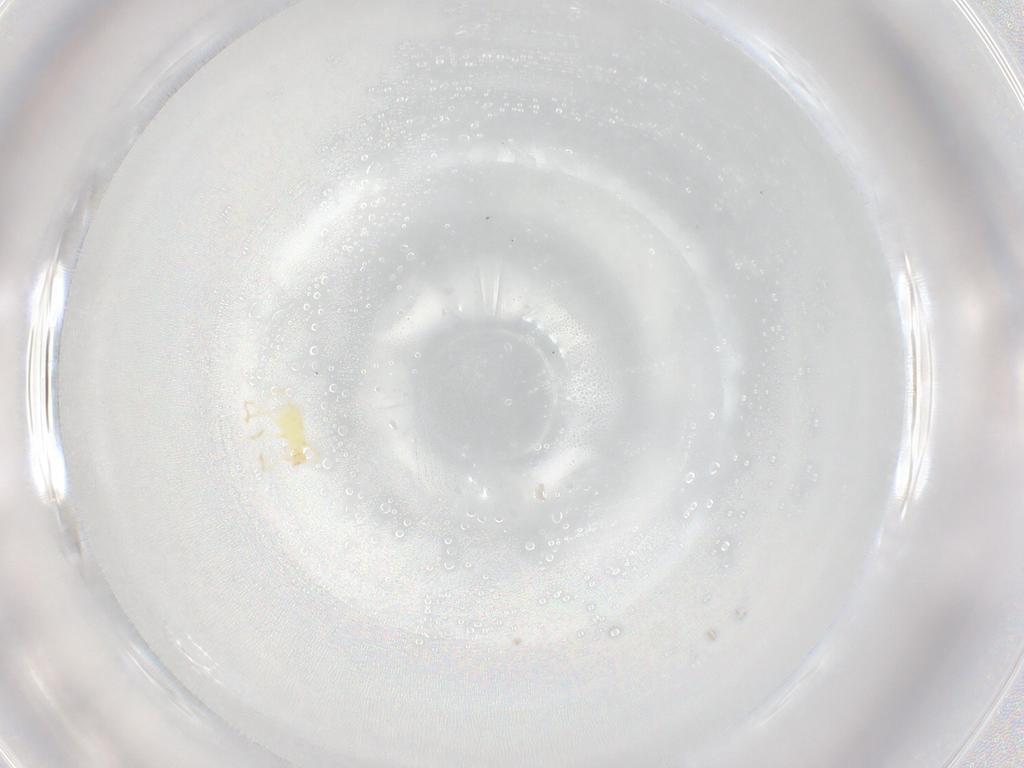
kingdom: Animalia
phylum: Arthropoda
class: Arachnida
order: Trombidiformes
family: Erythraeidae
